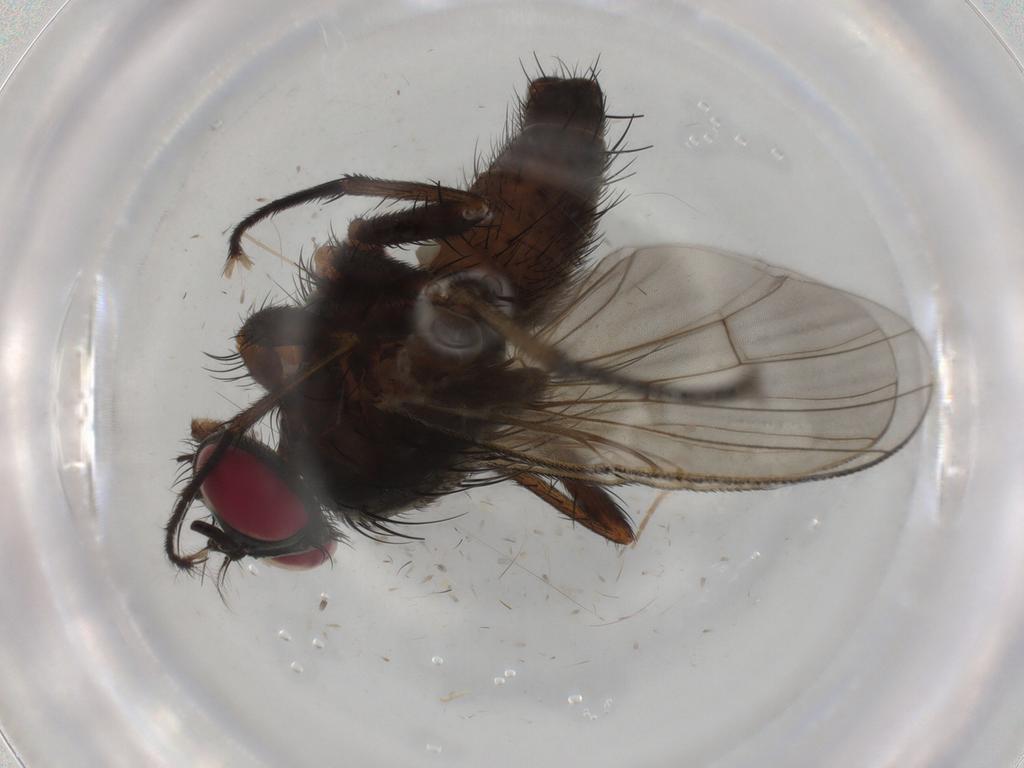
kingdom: Animalia
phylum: Arthropoda
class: Insecta
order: Diptera
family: Muscidae
